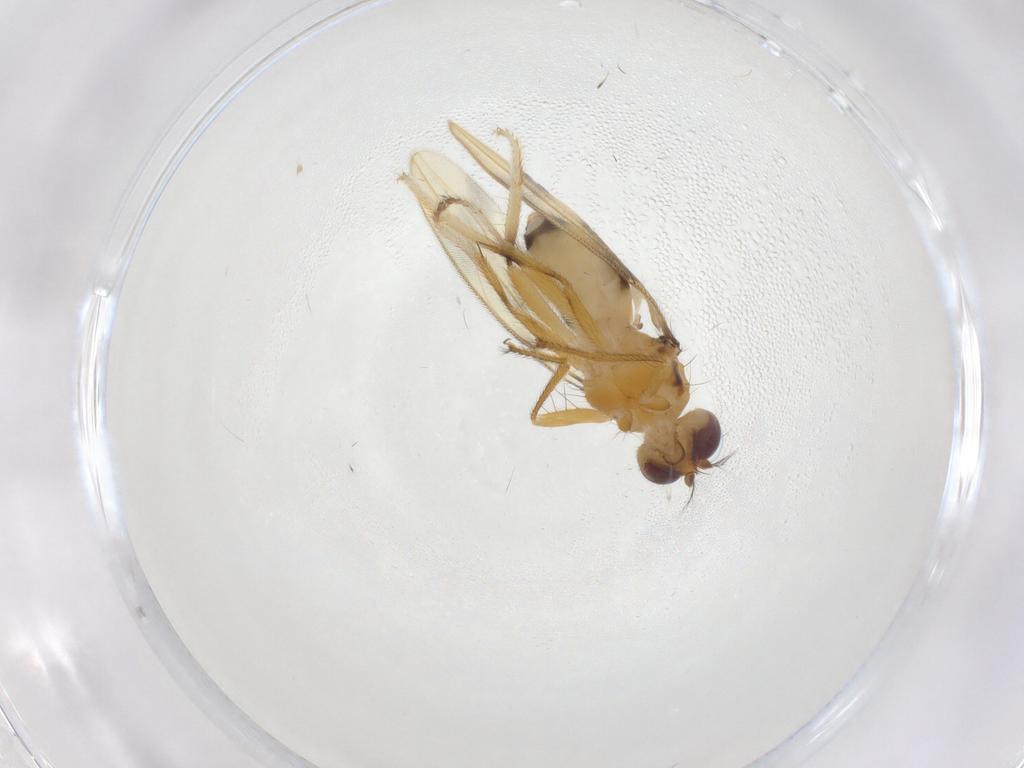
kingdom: Animalia
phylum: Arthropoda
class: Insecta
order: Diptera
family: Periscelididae
